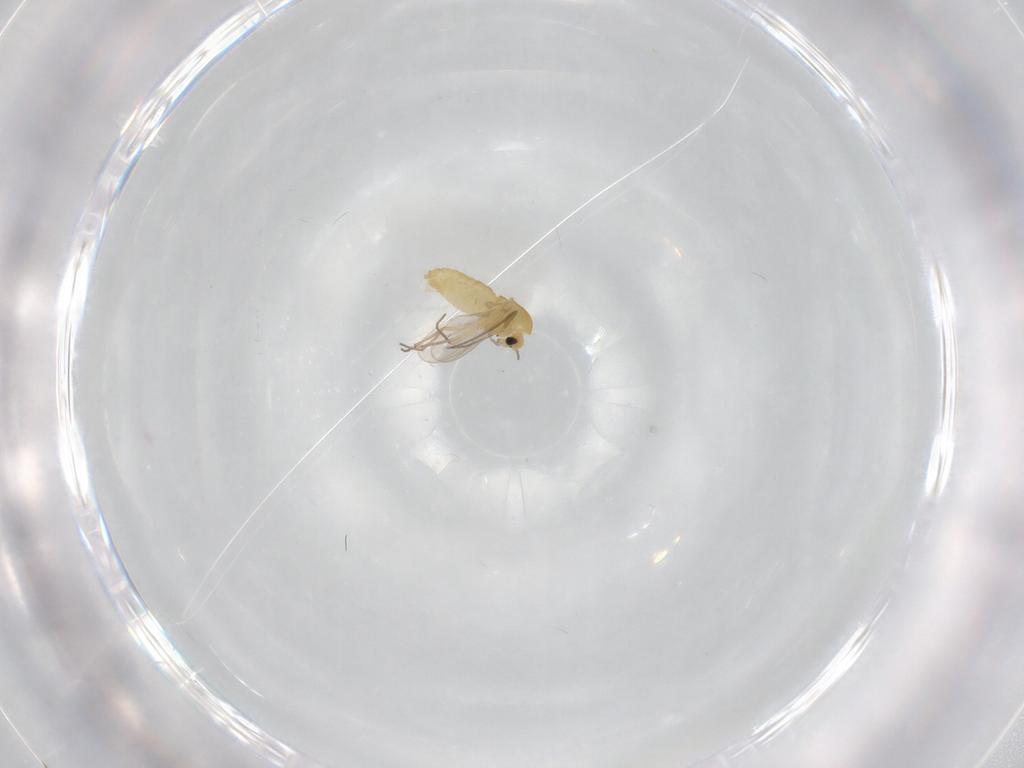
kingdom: Animalia
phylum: Arthropoda
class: Insecta
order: Diptera
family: Chironomidae
